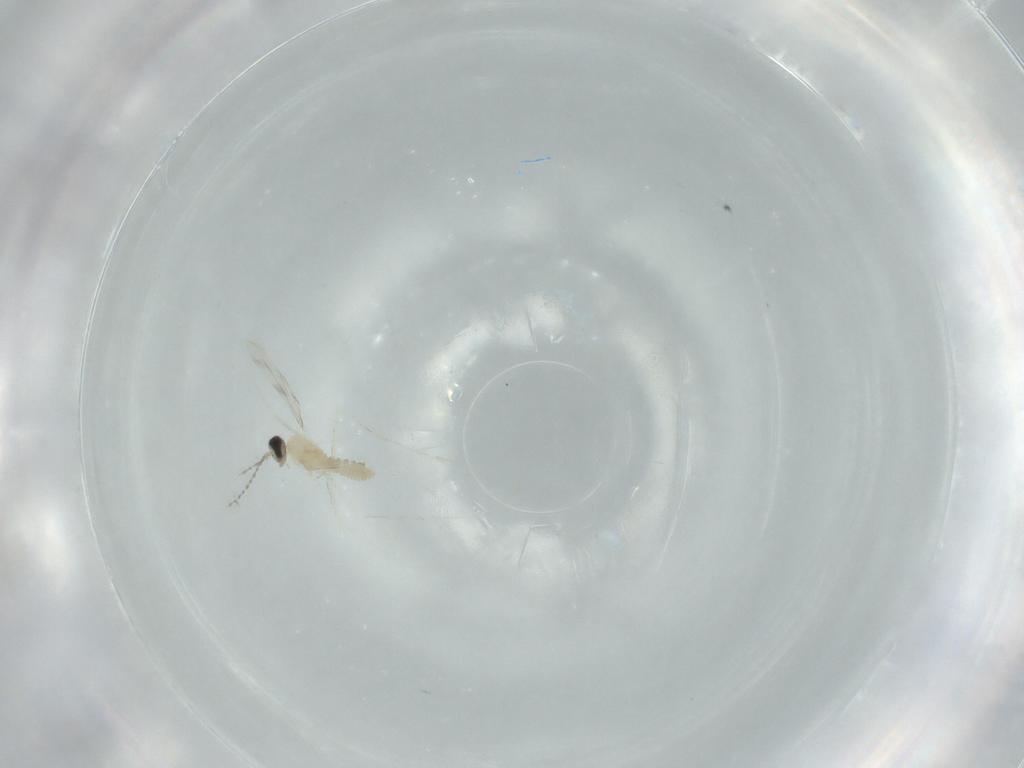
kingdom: Animalia
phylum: Arthropoda
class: Insecta
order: Diptera
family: Cecidomyiidae
